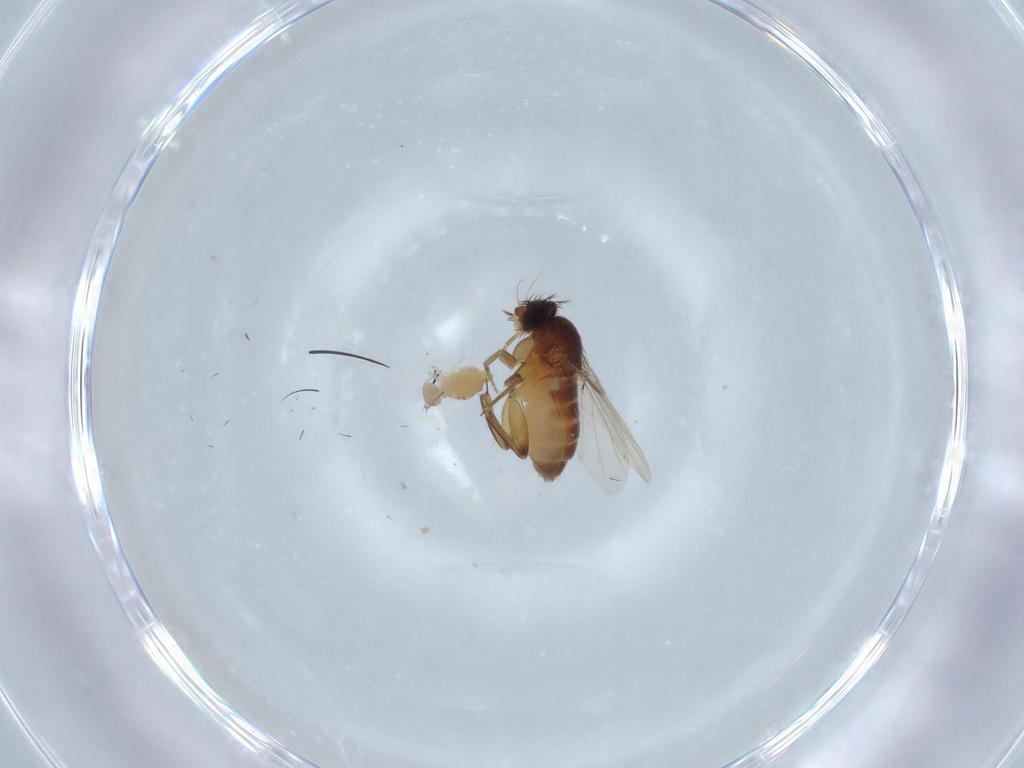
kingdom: Animalia
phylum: Arthropoda
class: Insecta
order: Diptera
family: Phoridae
